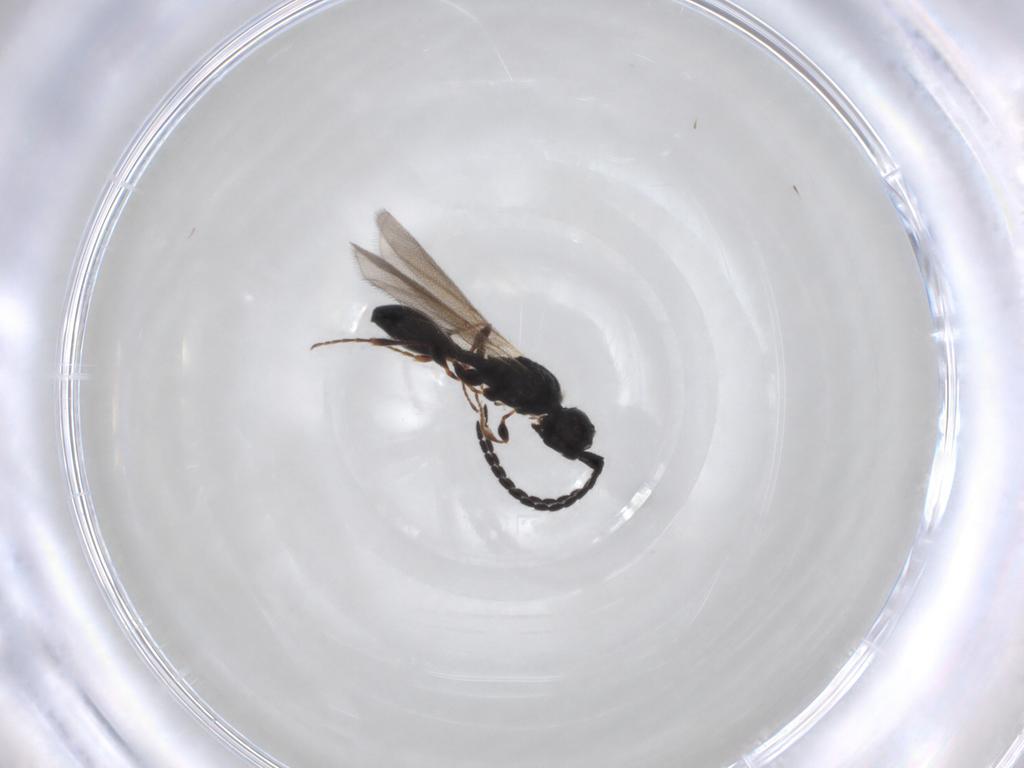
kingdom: Animalia
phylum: Arthropoda
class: Insecta
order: Hymenoptera
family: Diapriidae
